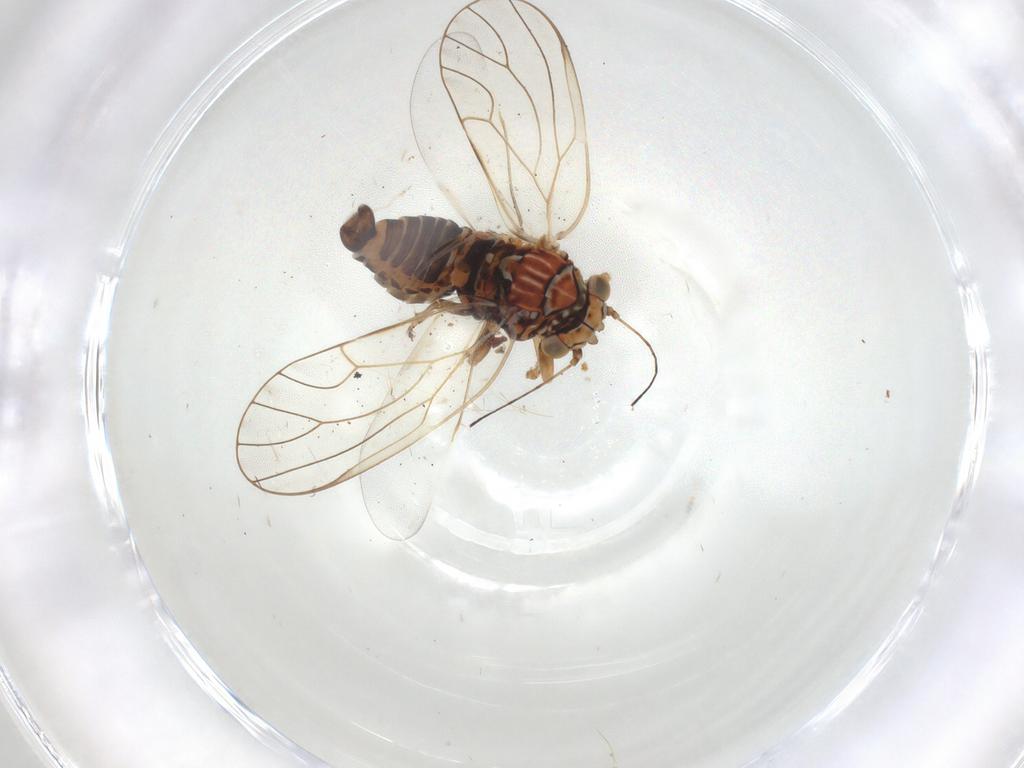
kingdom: Animalia
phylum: Arthropoda
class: Insecta
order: Hemiptera
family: Psyllidae
